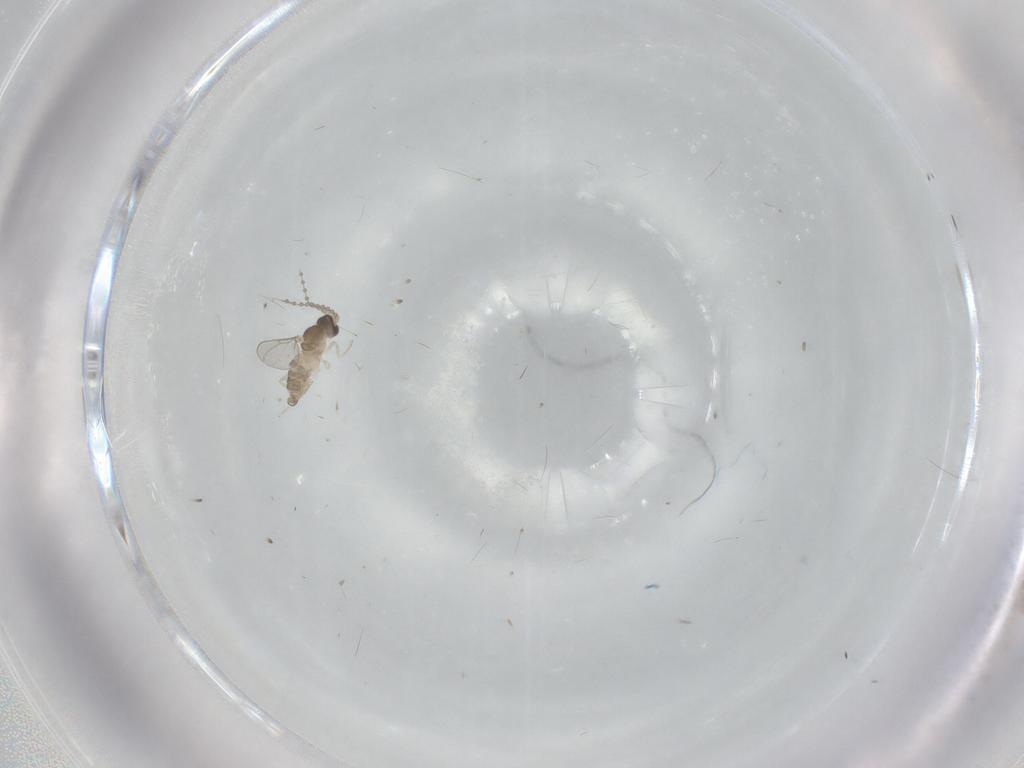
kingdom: Animalia
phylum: Arthropoda
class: Insecta
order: Diptera
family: Cecidomyiidae
